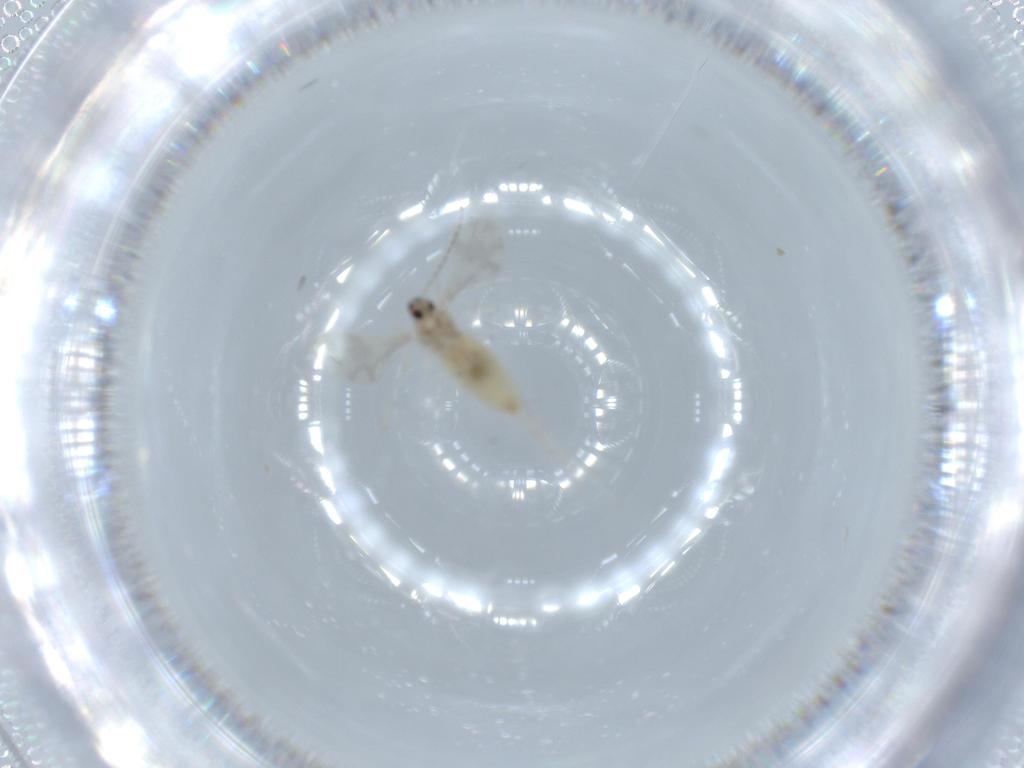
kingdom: Animalia
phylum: Arthropoda
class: Insecta
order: Diptera
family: Cecidomyiidae
